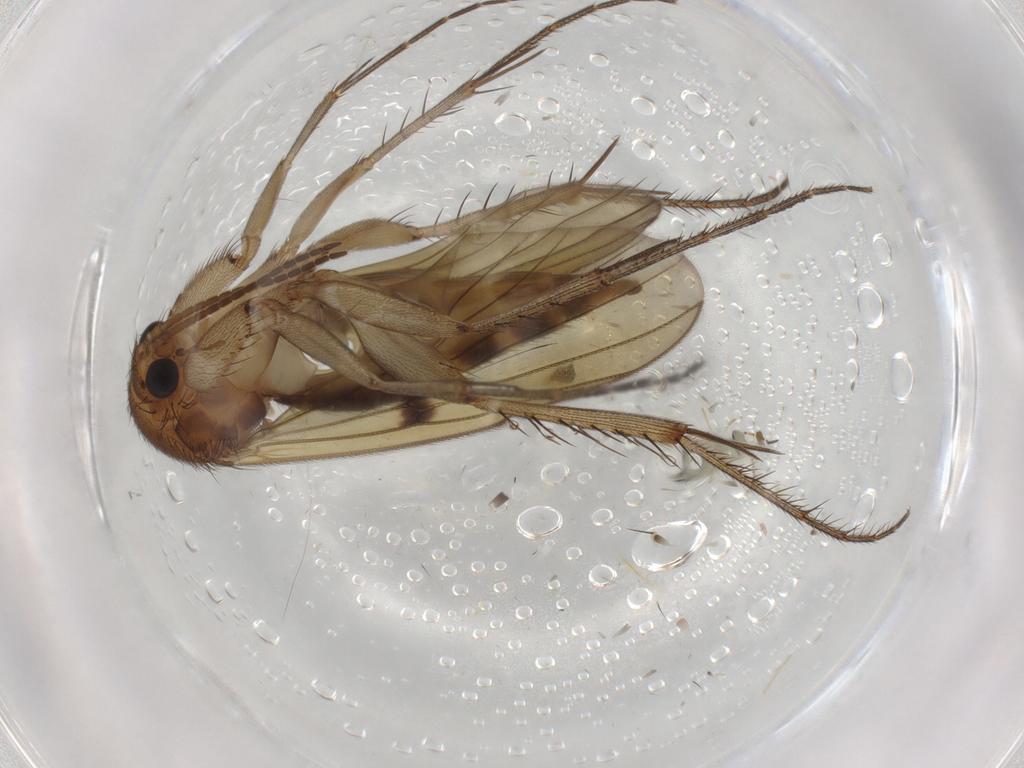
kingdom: Animalia
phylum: Arthropoda
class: Insecta
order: Diptera
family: Mycetophilidae
